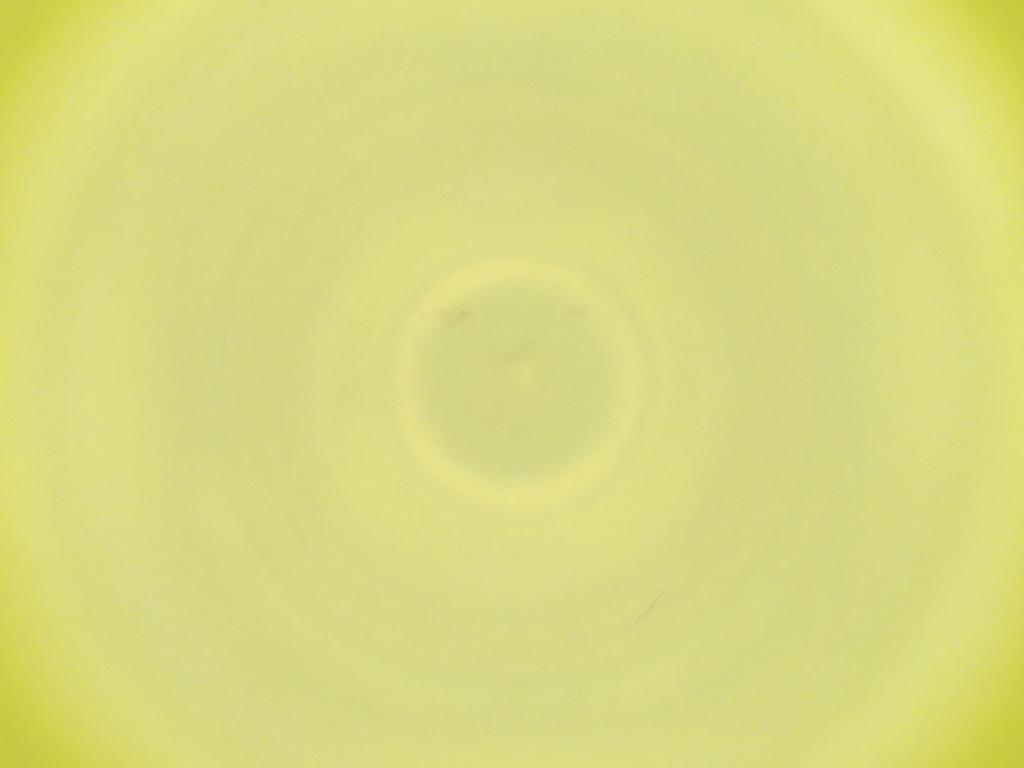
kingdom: Animalia
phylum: Arthropoda
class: Insecta
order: Diptera
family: Cecidomyiidae
